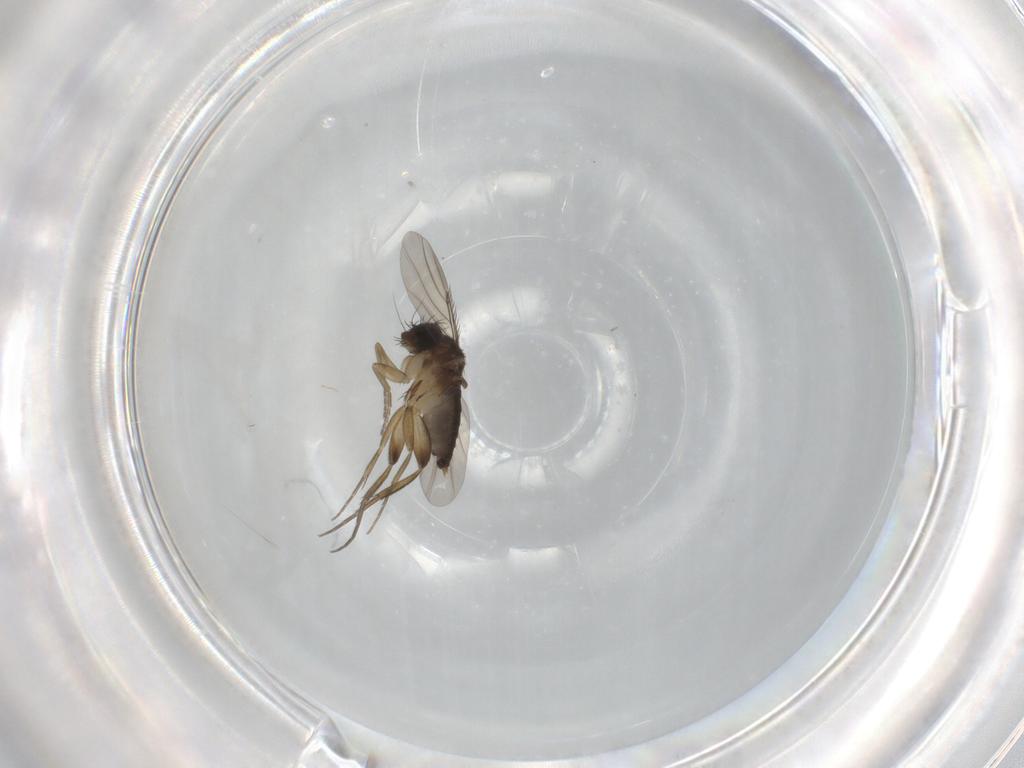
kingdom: Animalia
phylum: Arthropoda
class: Insecta
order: Diptera
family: Phoridae
